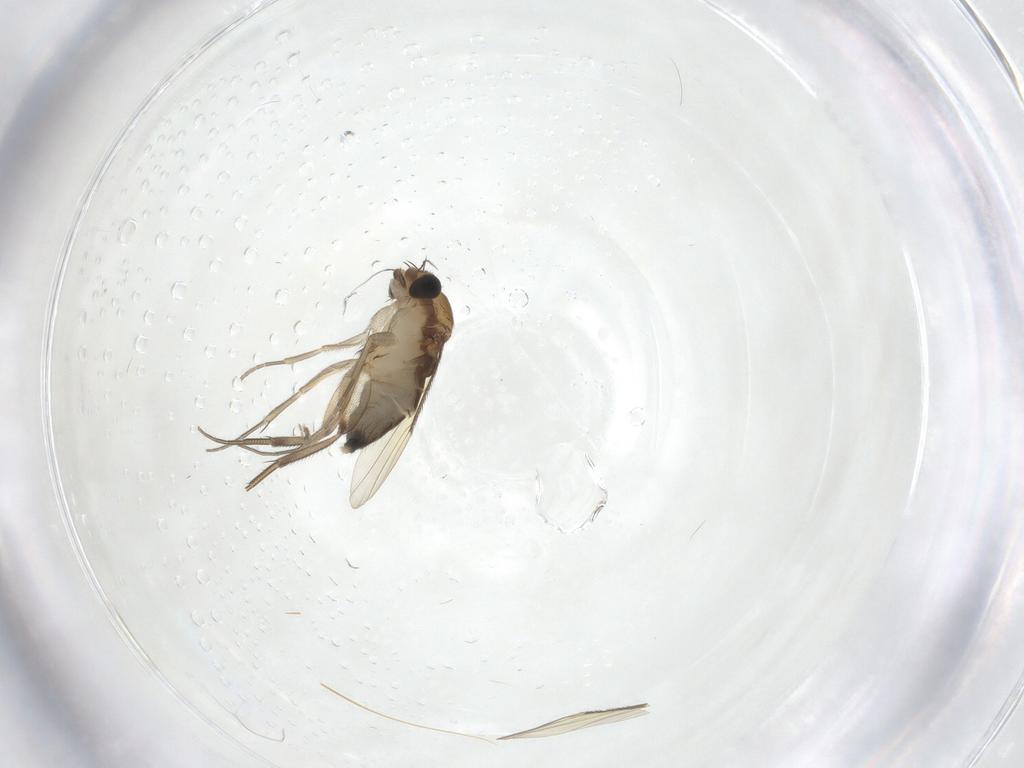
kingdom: Animalia
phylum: Arthropoda
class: Insecta
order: Diptera
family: Phoridae
